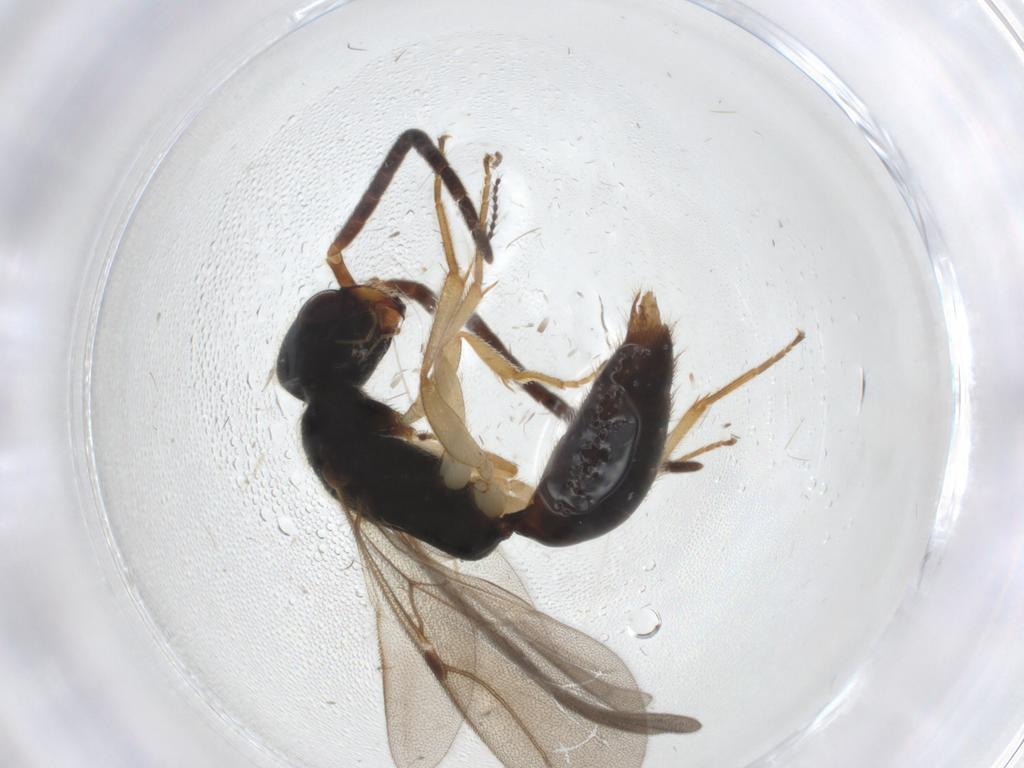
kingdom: Animalia
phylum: Arthropoda
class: Insecta
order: Hymenoptera
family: Bethylidae
